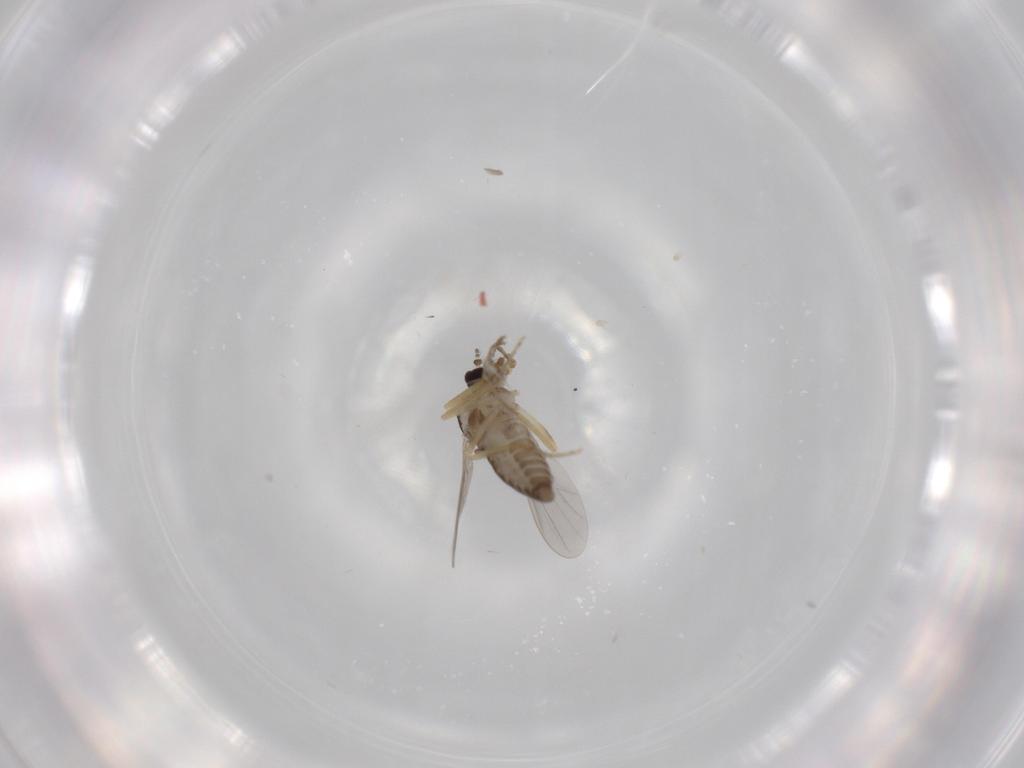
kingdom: Animalia
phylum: Arthropoda
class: Insecta
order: Diptera
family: Ceratopogonidae
